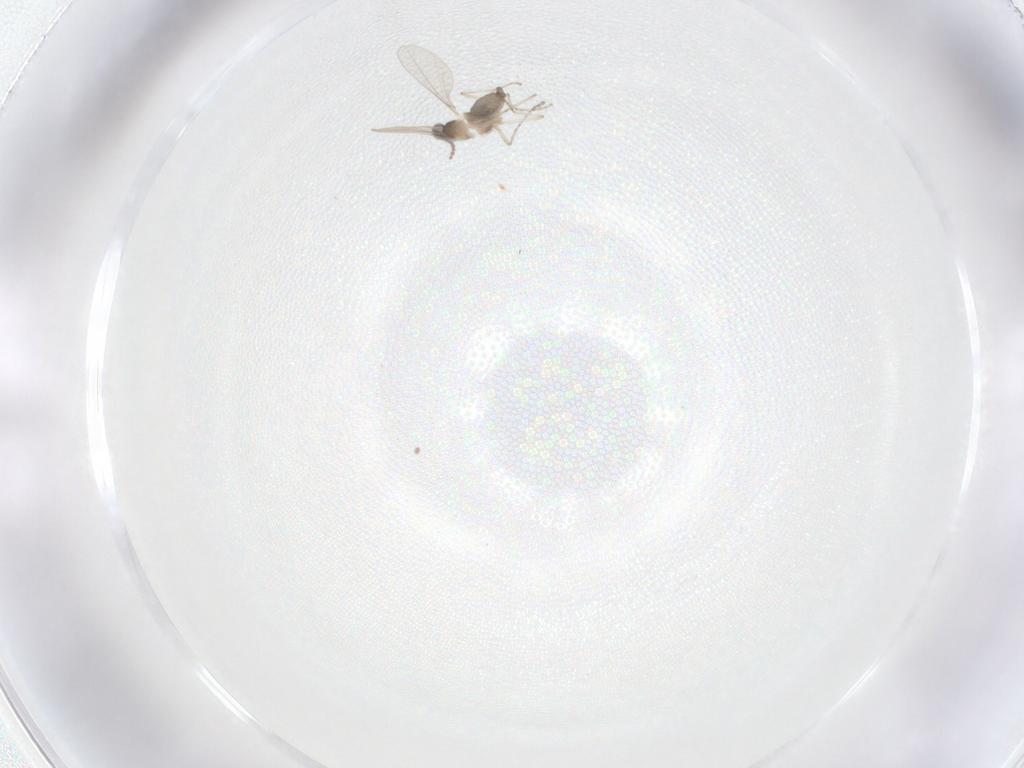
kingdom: Animalia
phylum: Arthropoda
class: Insecta
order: Diptera
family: Cecidomyiidae
